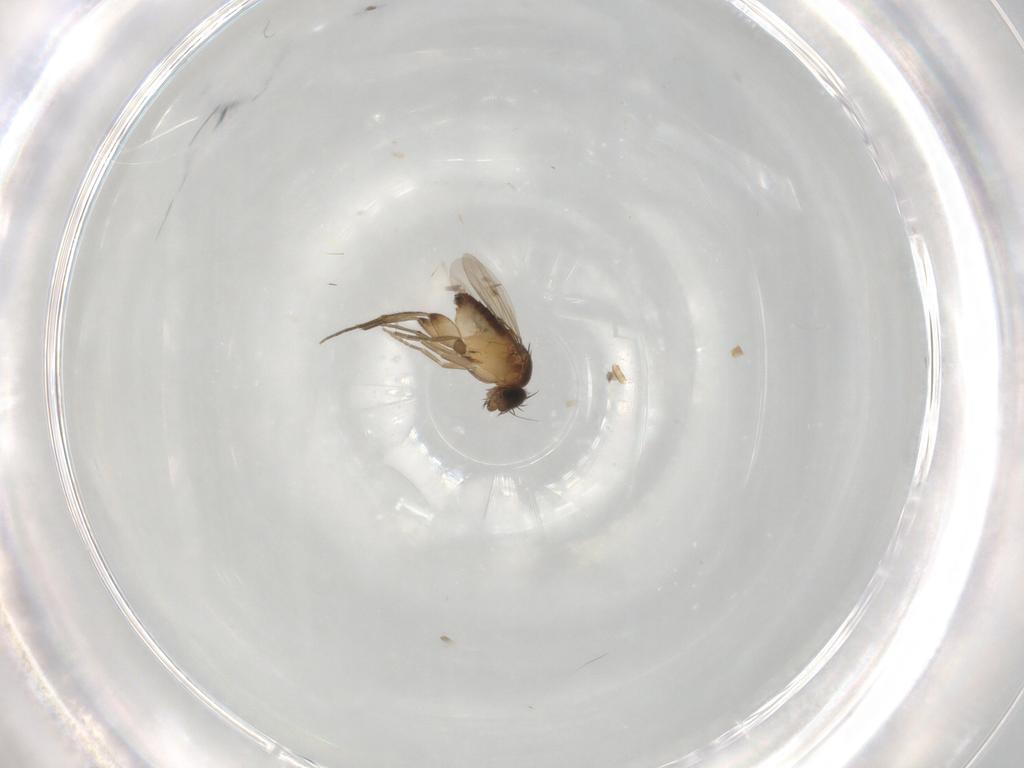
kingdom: Animalia
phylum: Arthropoda
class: Insecta
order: Diptera
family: Phoridae
